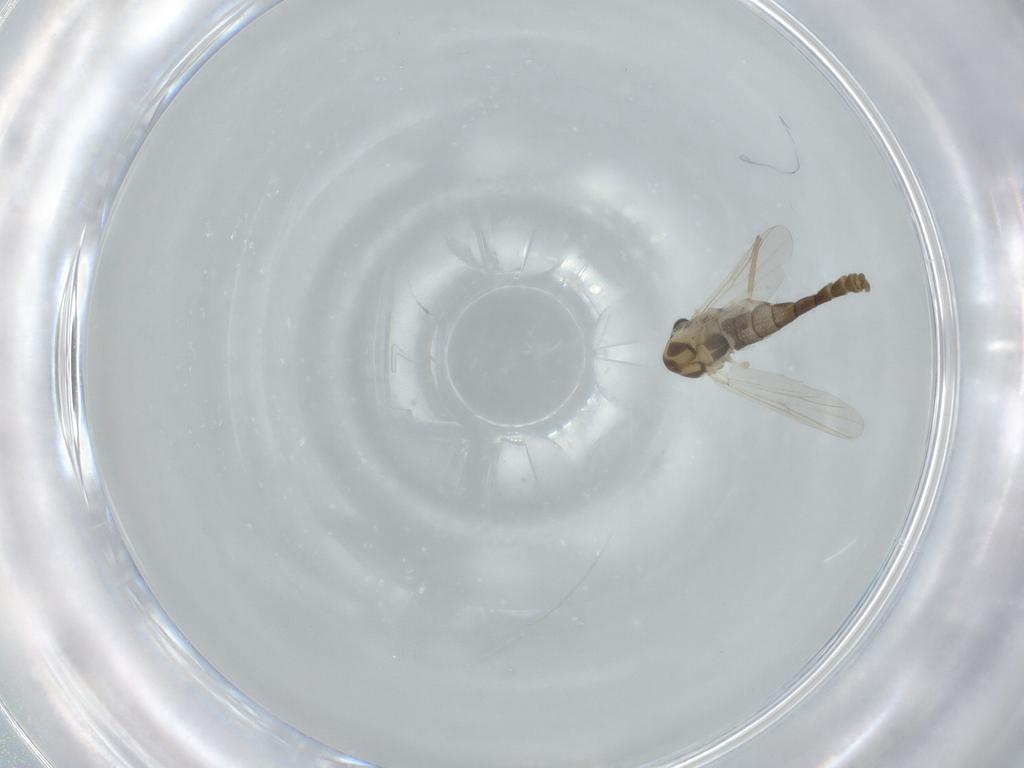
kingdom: Animalia
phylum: Arthropoda
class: Insecta
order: Diptera
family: Chironomidae
